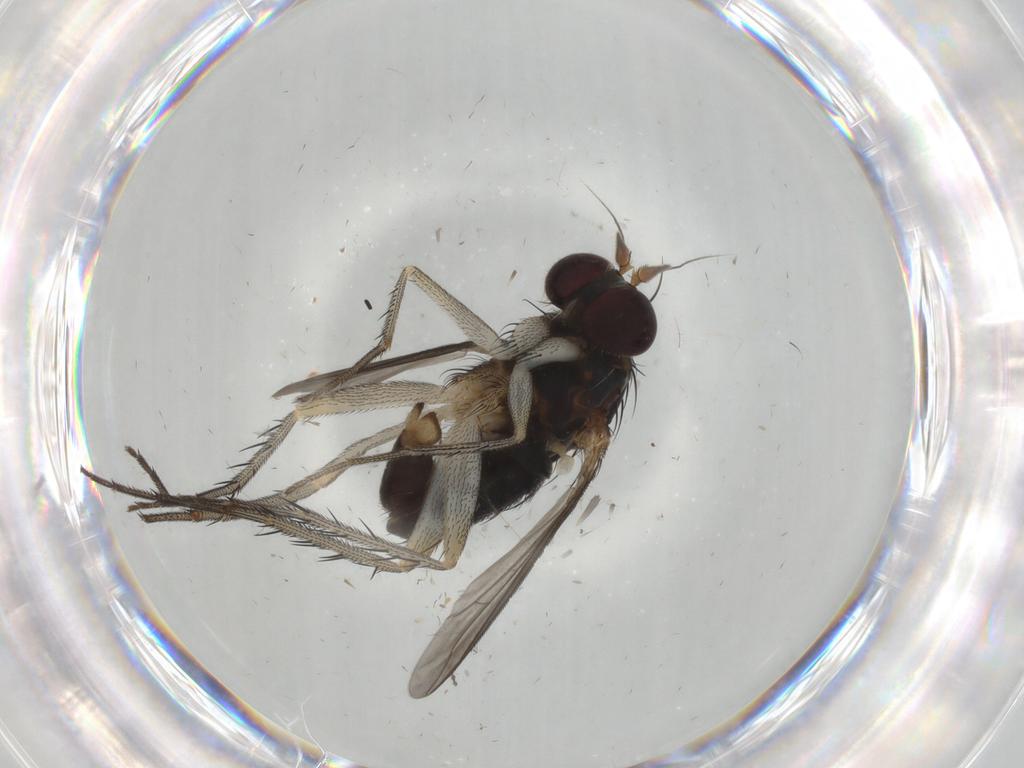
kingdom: Animalia
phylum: Arthropoda
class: Insecta
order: Diptera
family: Dolichopodidae
